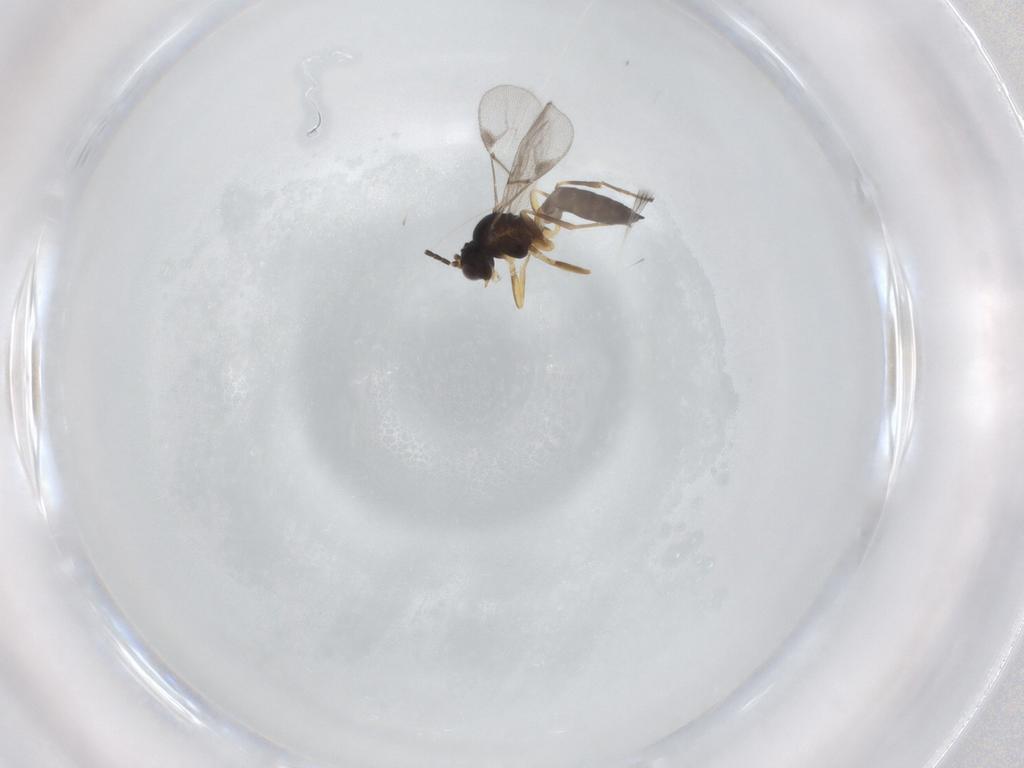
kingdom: Animalia
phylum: Arthropoda
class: Insecta
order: Hymenoptera
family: Braconidae
